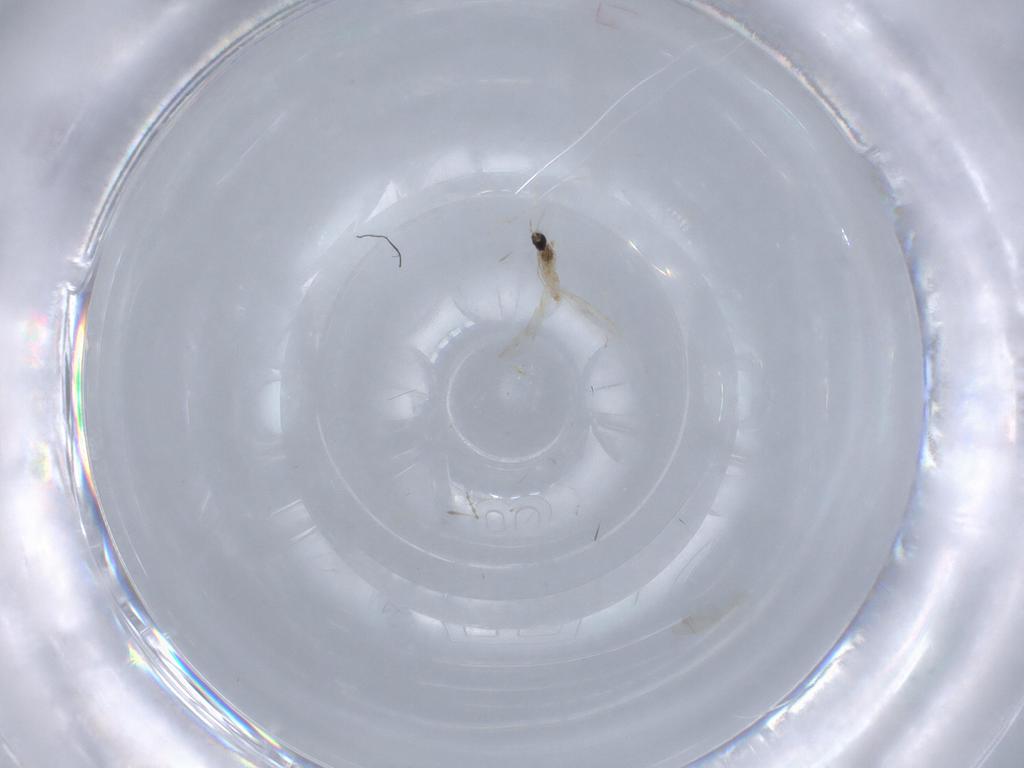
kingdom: Animalia
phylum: Arthropoda
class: Insecta
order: Diptera
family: Cecidomyiidae
